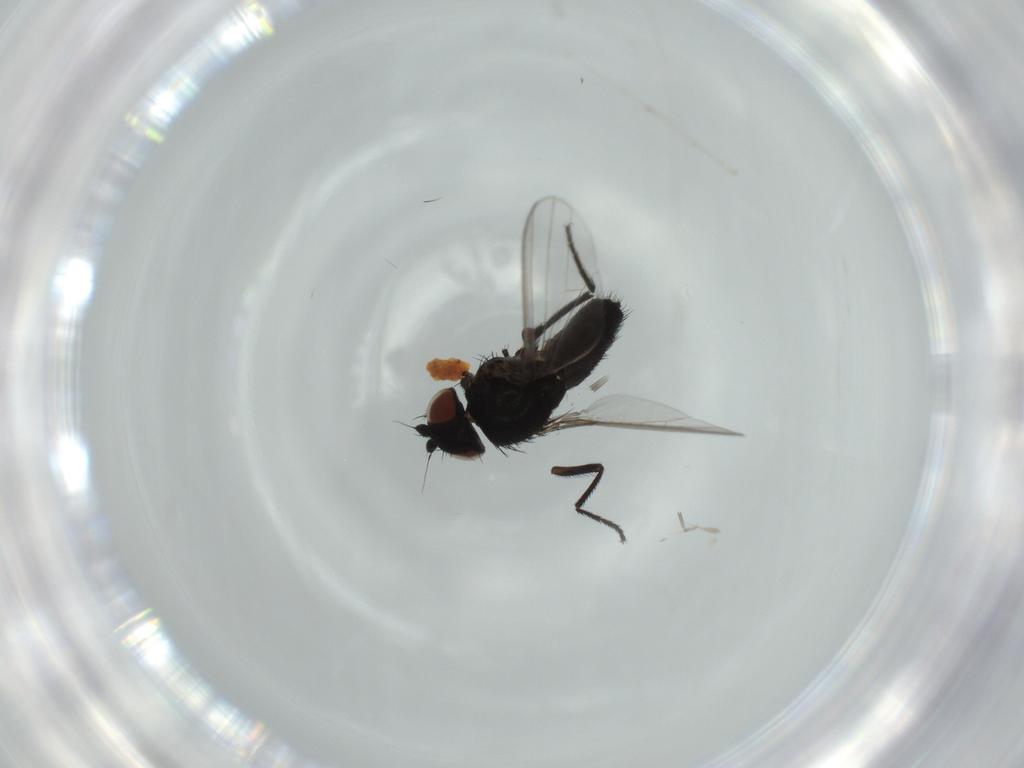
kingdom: Animalia
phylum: Arthropoda
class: Insecta
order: Diptera
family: Milichiidae
